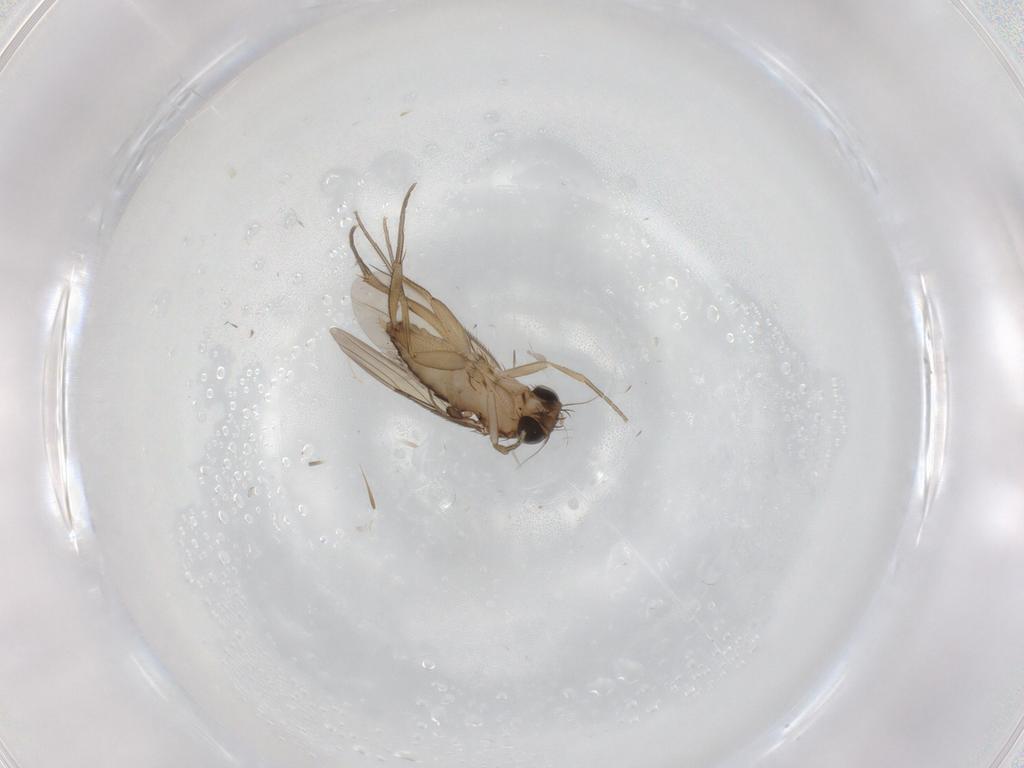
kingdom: Animalia
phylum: Arthropoda
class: Insecta
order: Diptera
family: Phoridae
